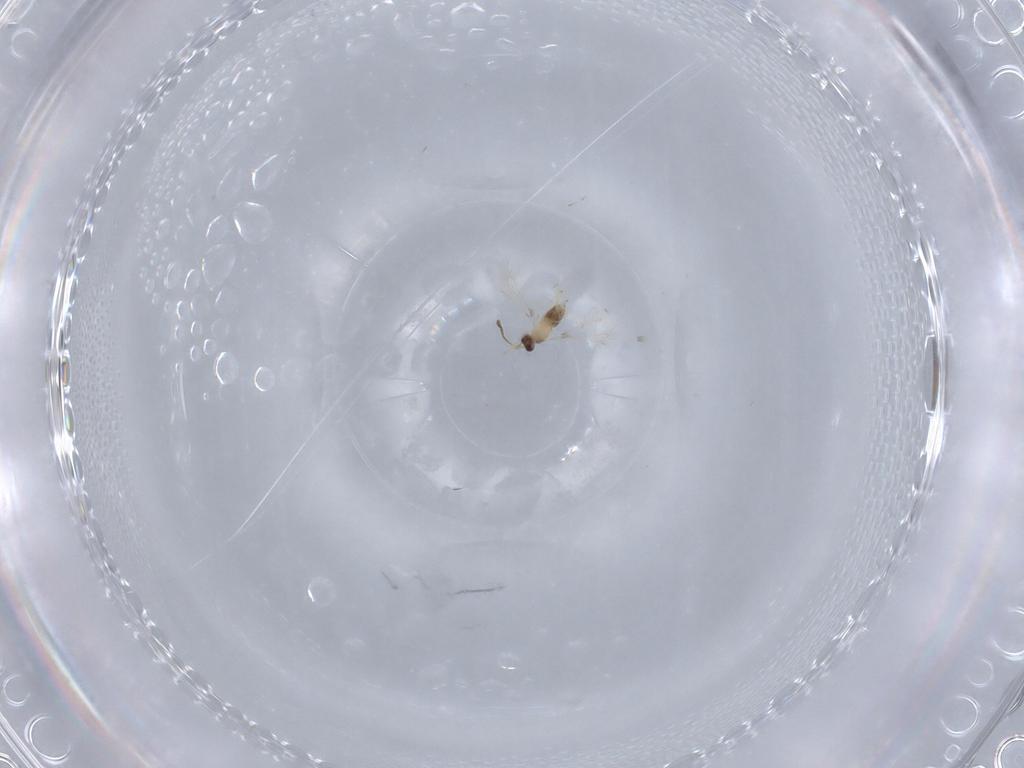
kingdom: Animalia
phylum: Arthropoda
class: Insecta
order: Hymenoptera
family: Mymaridae
